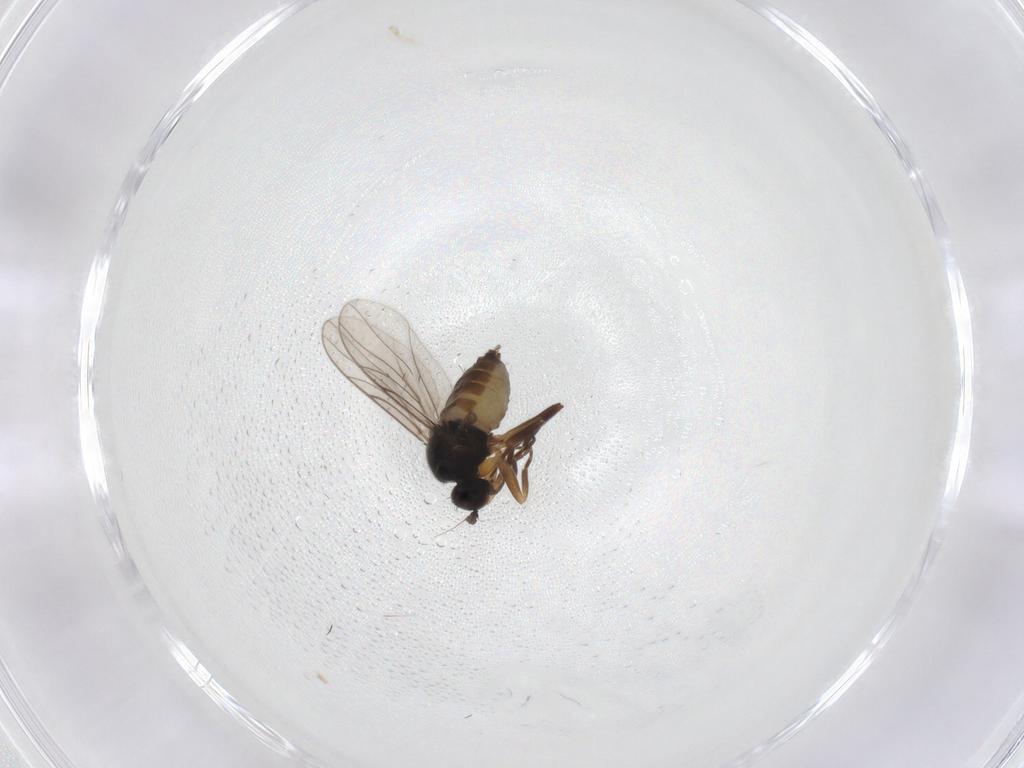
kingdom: Animalia
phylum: Arthropoda
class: Insecta
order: Diptera
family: Hybotidae
